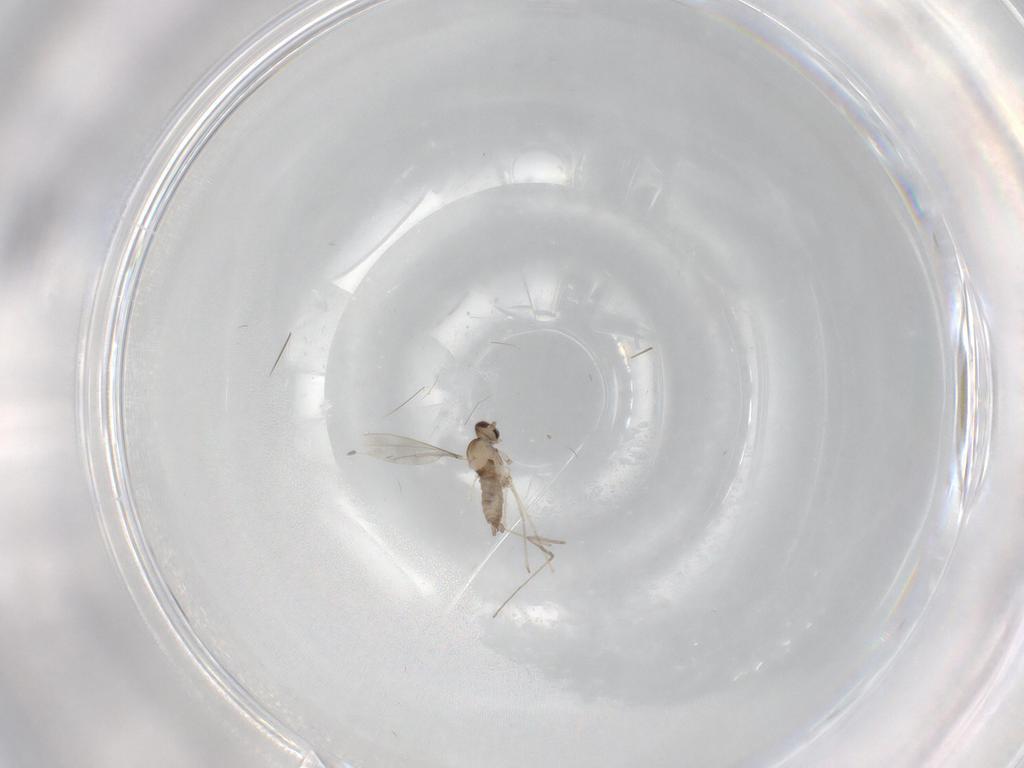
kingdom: Animalia
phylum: Arthropoda
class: Insecta
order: Diptera
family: Cecidomyiidae
